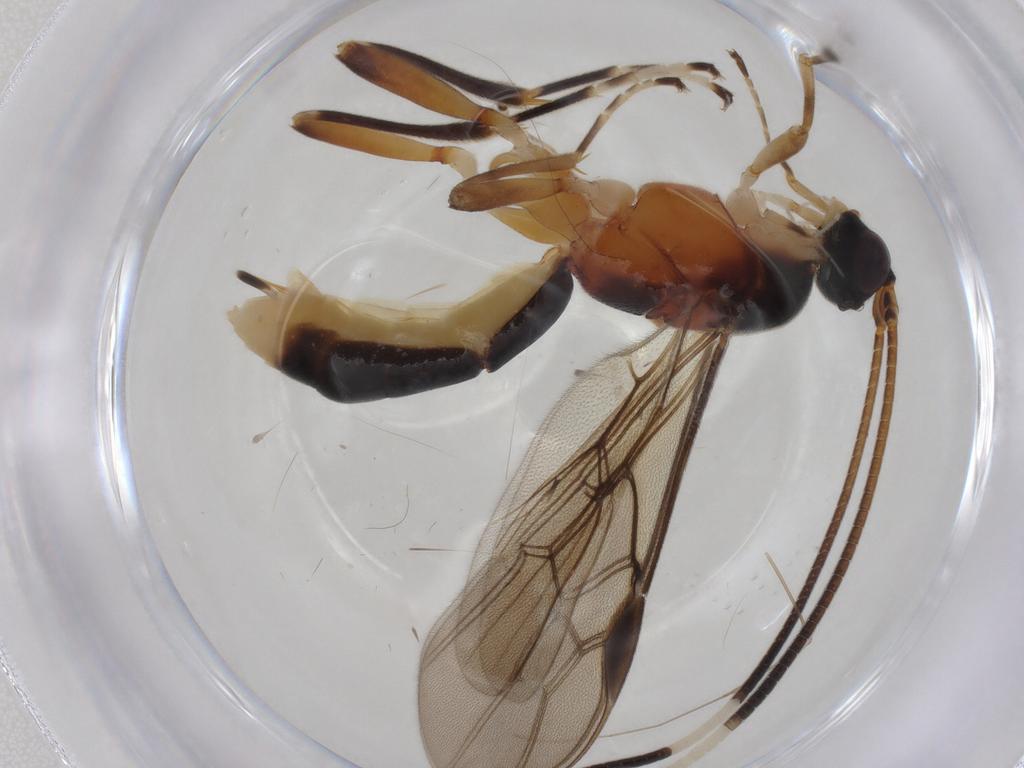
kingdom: Animalia
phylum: Arthropoda
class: Insecta
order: Hymenoptera
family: Braconidae
